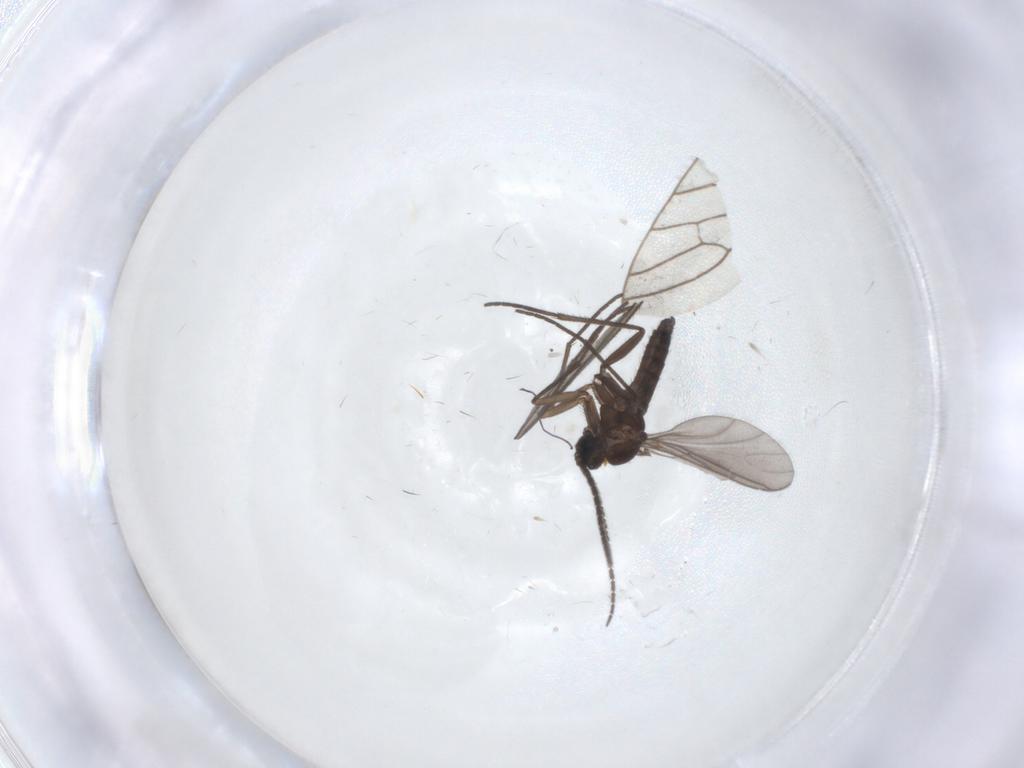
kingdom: Animalia
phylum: Arthropoda
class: Insecta
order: Diptera
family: Sciaridae
